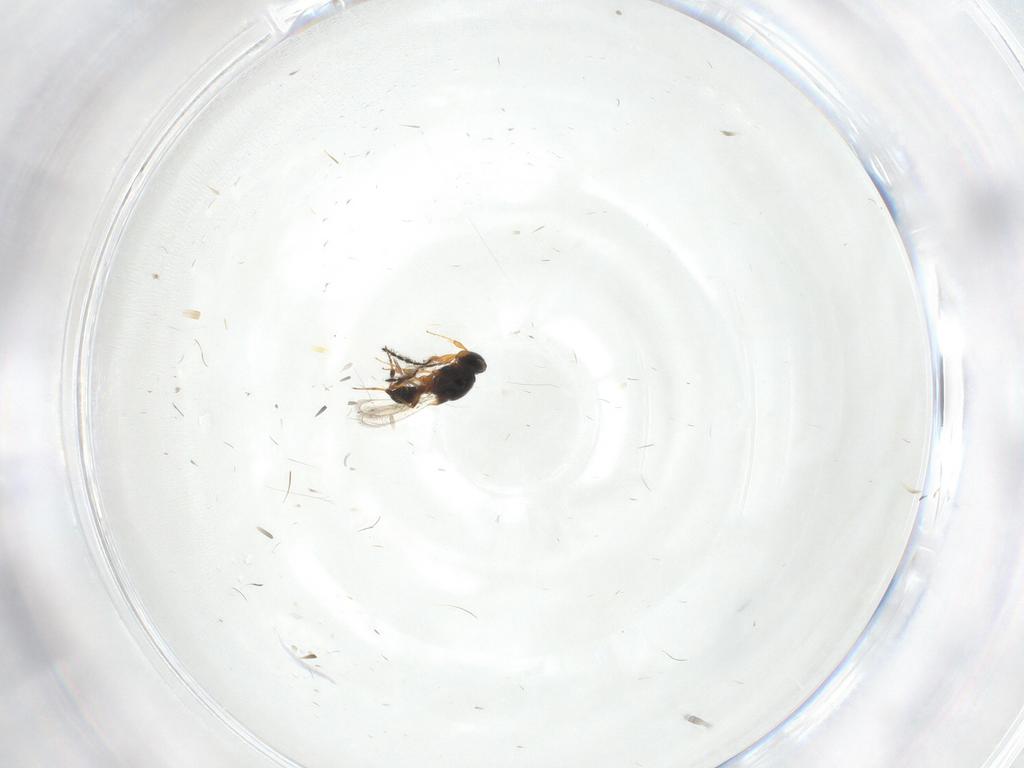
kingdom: Animalia
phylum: Arthropoda
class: Insecta
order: Hymenoptera
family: Platygastridae
